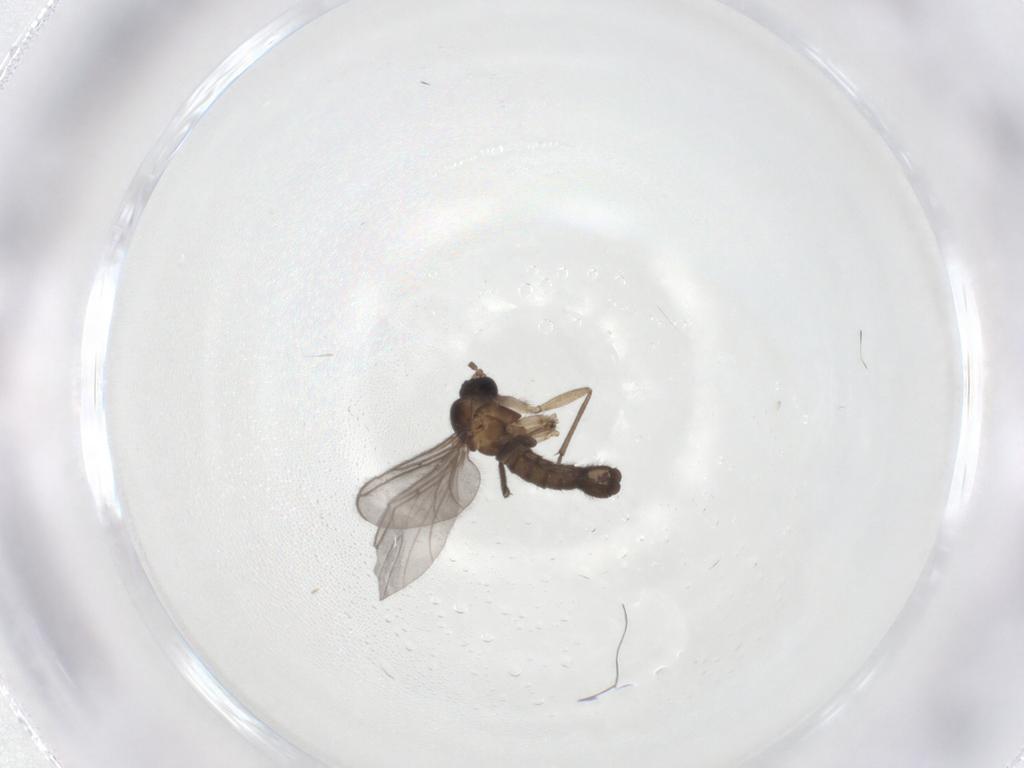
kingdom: Animalia
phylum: Arthropoda
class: Insecta
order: Diptera
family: Sciaridae
